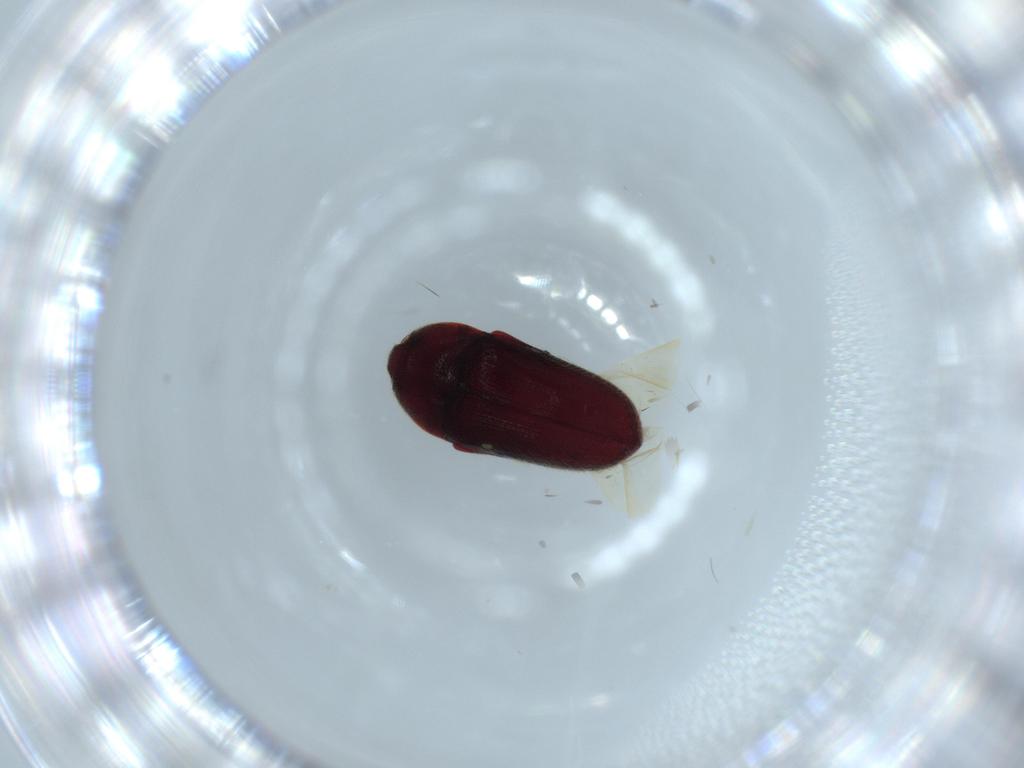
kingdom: Animalia
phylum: Arthropoda
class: Insecta
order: Coleoptera
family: Throscidae
